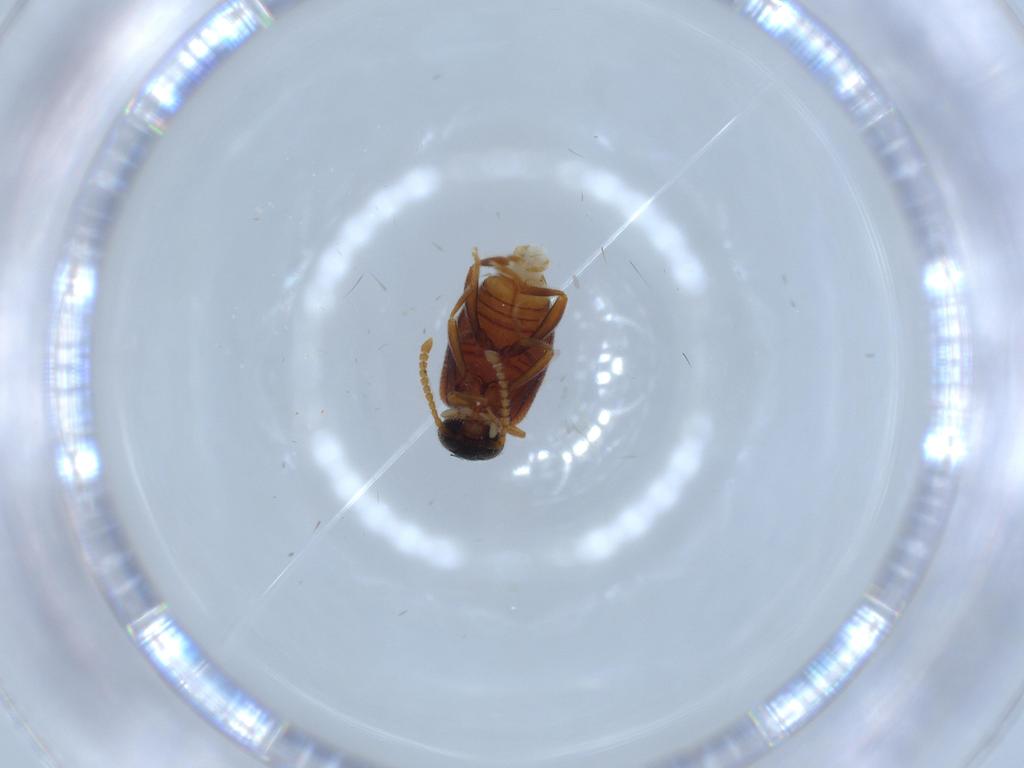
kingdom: Animalia
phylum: Arthropoda
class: Insecta
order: Coleoptera
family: Aderidae
